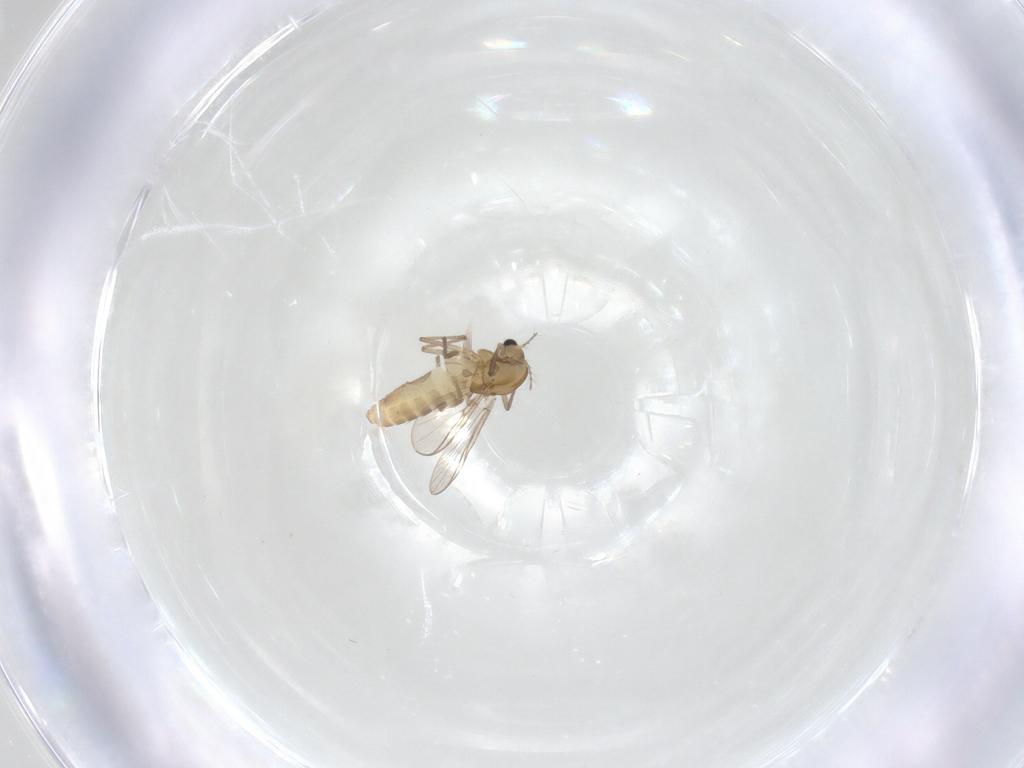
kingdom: Animalia
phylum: Arthropoda
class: Insecta
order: Diptera
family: Chironomidae
